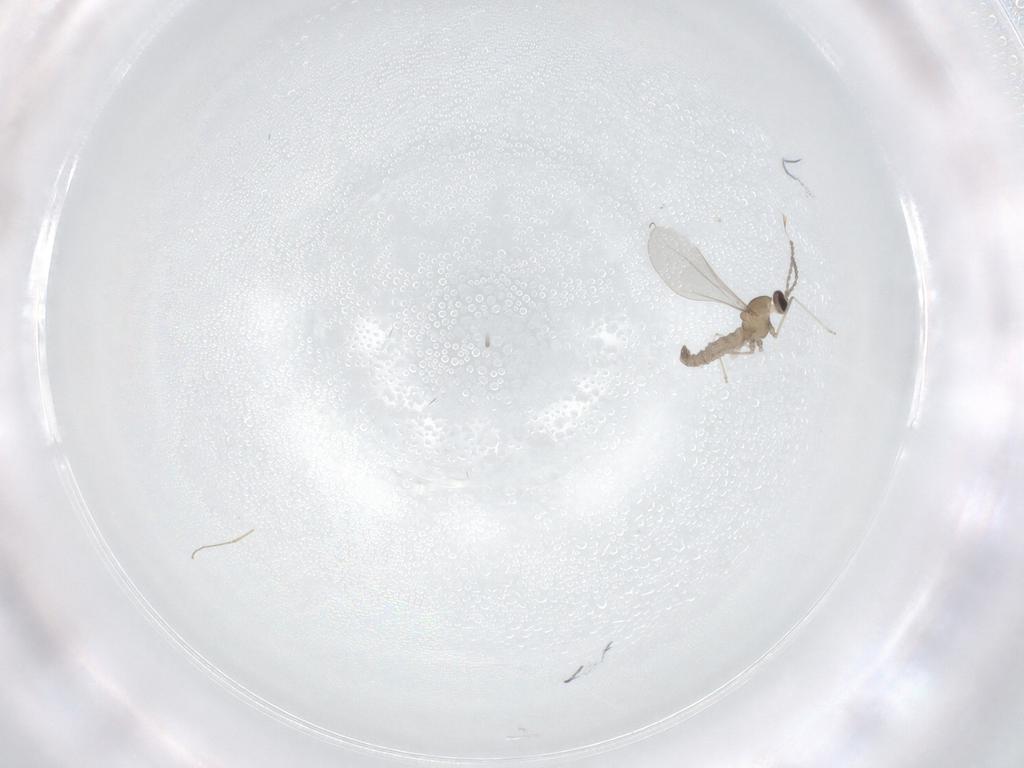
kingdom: Animalia
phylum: Arthropoda
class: Insecta
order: Diptera
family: Cecidomyiidae
